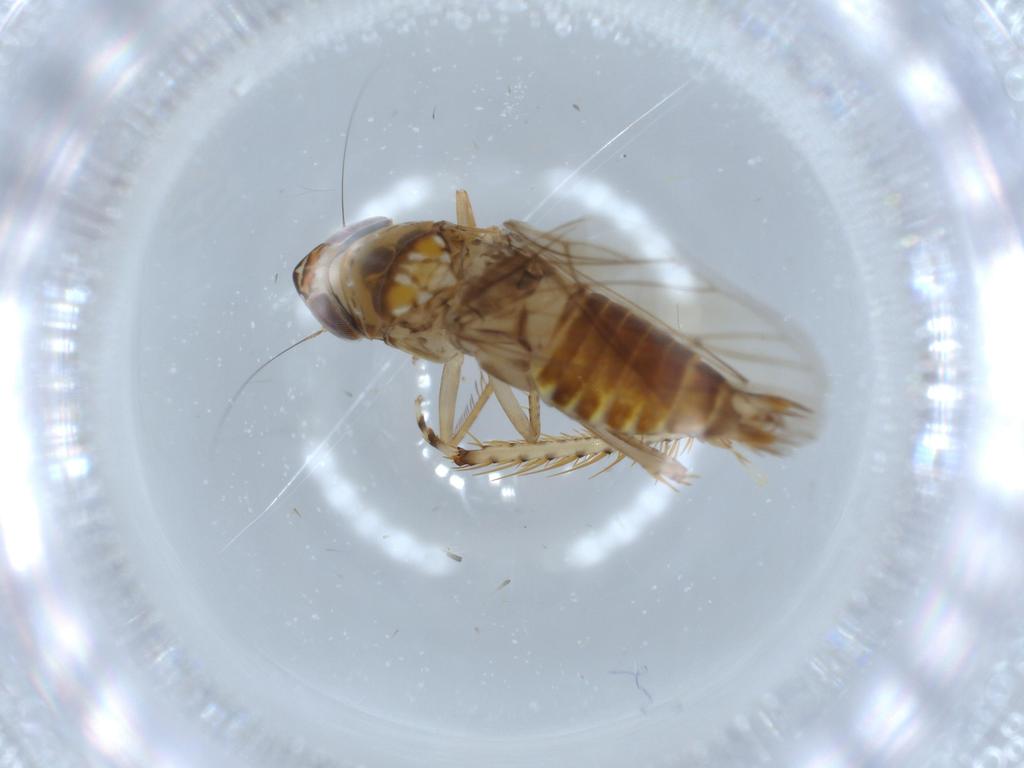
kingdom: Animalia
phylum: Arthropoda
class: Insecta
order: Hemiptera
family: Cicadellidae
